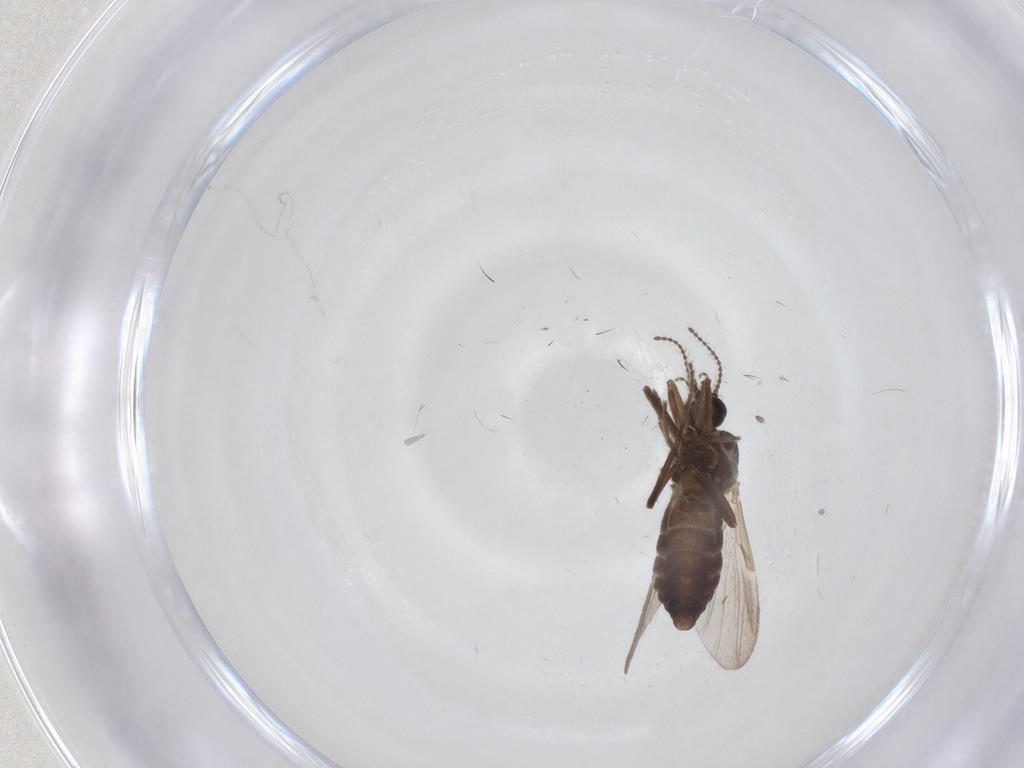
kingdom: Animalia
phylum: Arthropoda
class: Insecta
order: Diptera
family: Ceratopogonidae
